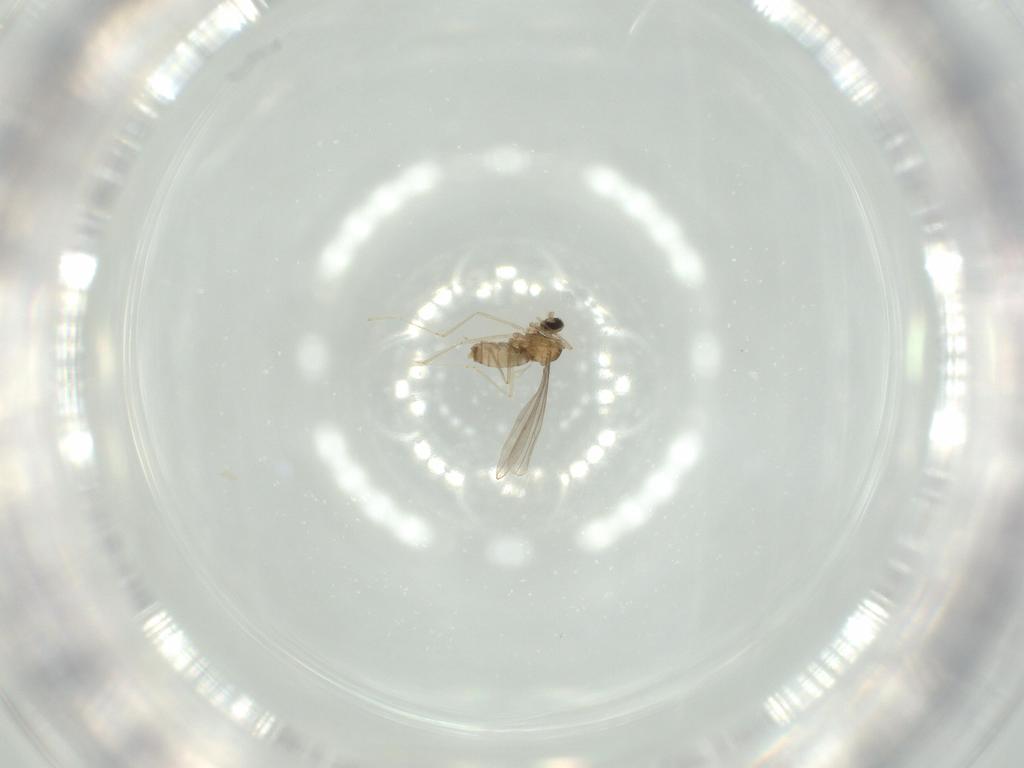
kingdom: Animalia
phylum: Arthropoda
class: Insecta
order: Diptera
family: Cecidomyiidae
